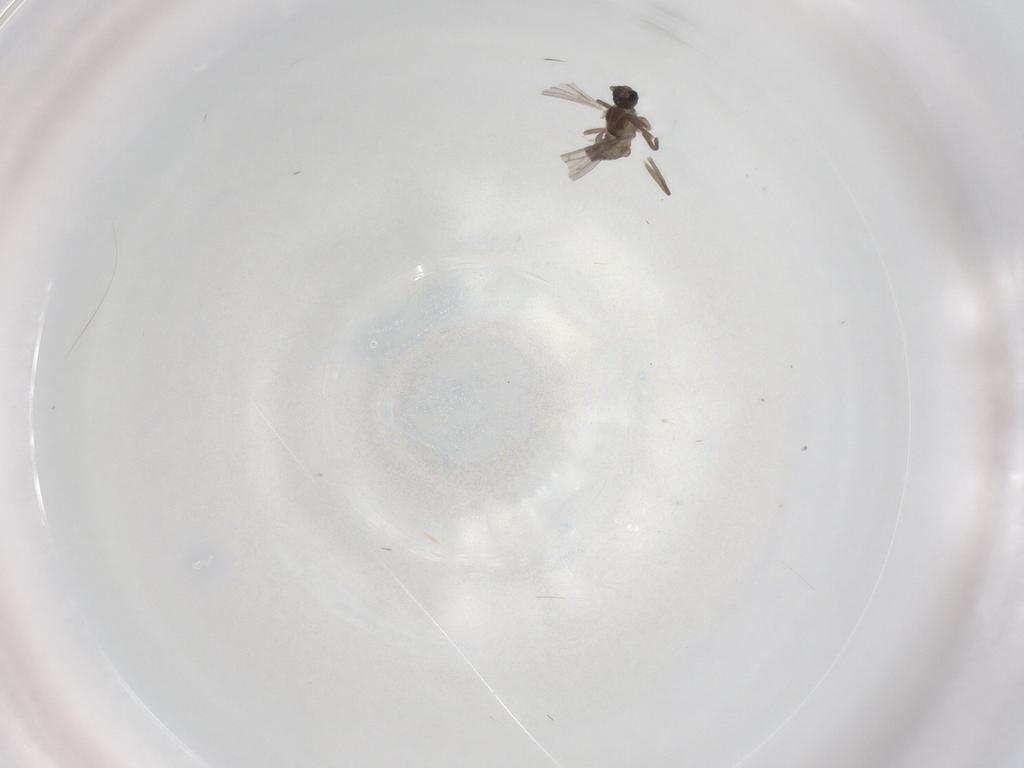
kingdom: Animalia
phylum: Arthropoda
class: Insecta
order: Diptera
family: Cecidomyiidae
